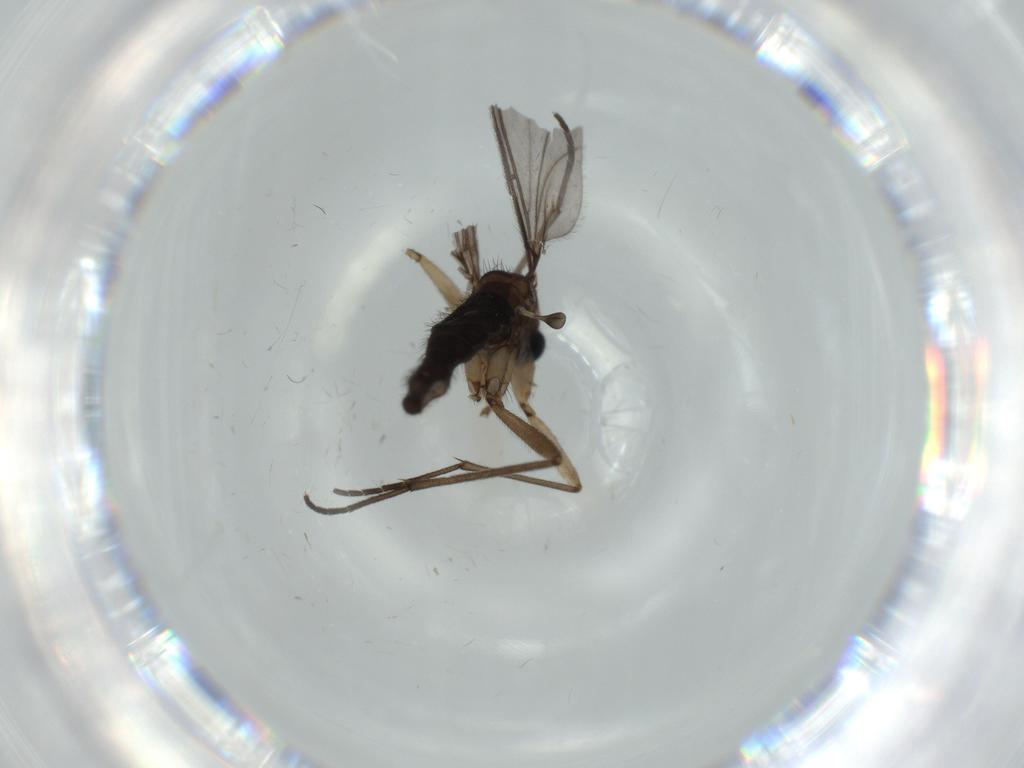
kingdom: Animalia
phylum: Arthropoda
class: Insecta
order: Diptera
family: Sciaridae
